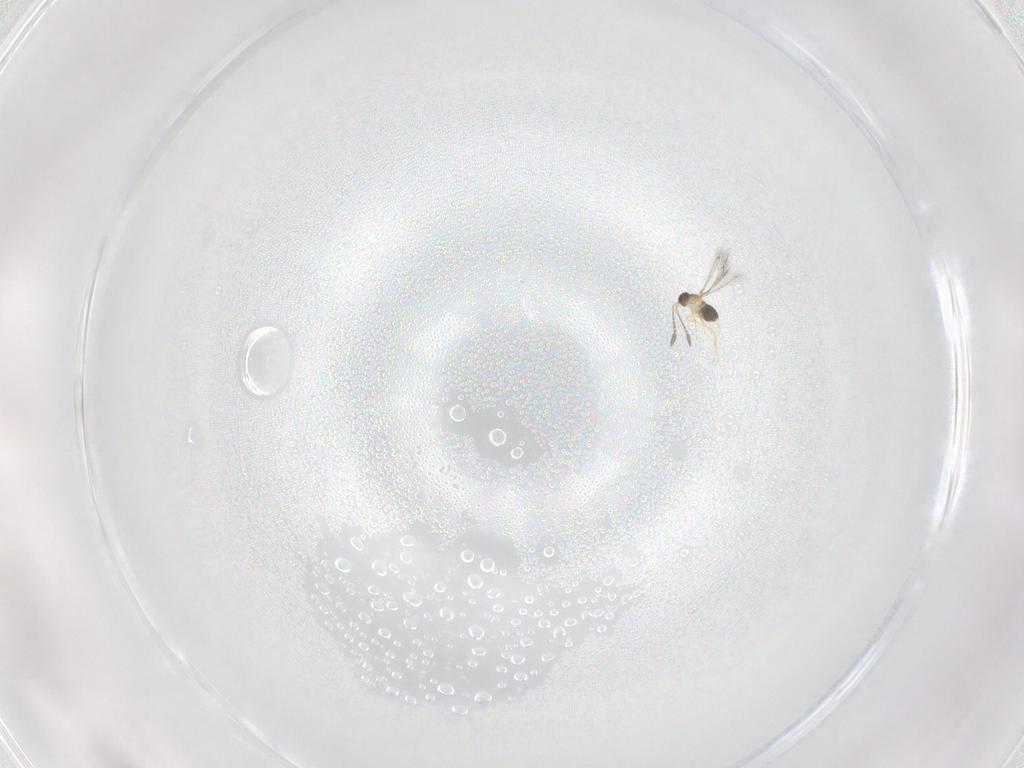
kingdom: Animalia
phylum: Arthropoda
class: Insecta
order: Hymenoptera
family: Mymaridae
